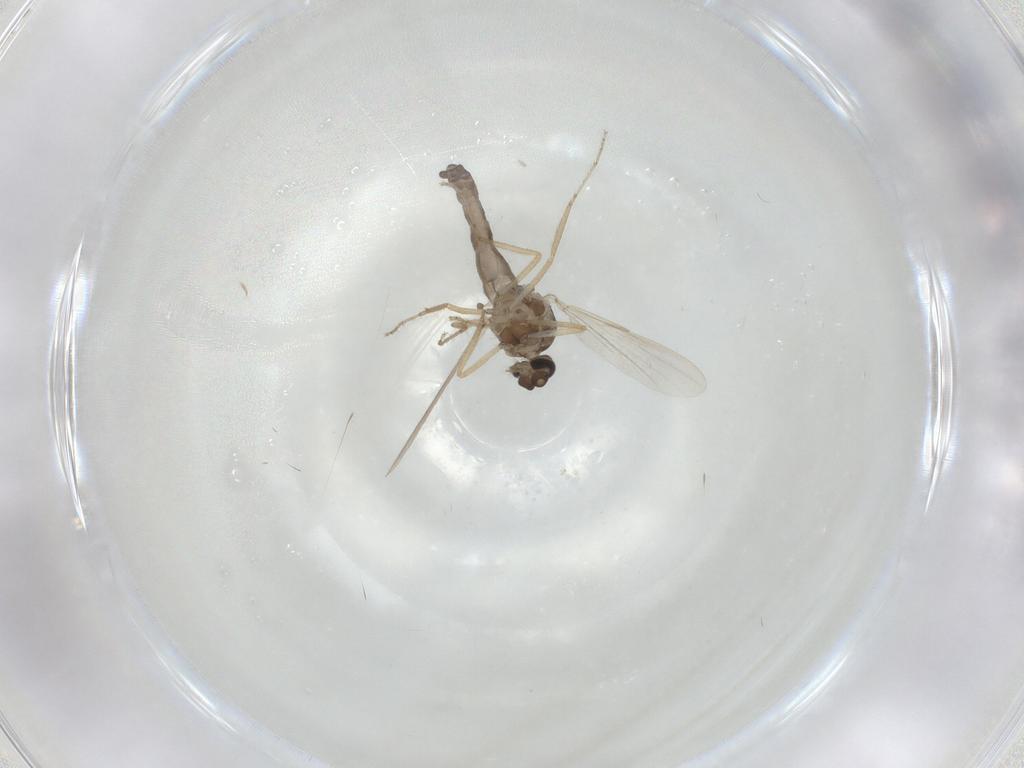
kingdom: Animalia
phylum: Arthropoda
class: Insecta
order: Diptera
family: Ceratopogonidae
